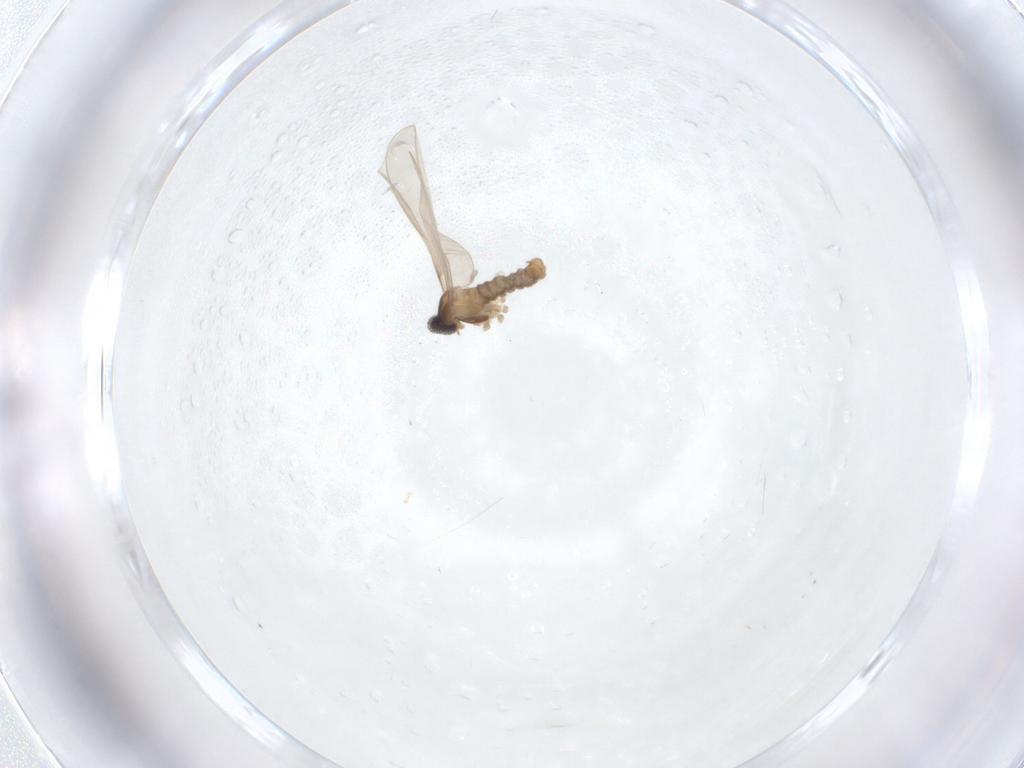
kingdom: Animalia
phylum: Arthropoda
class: Insecta
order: Diptera
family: Cecidomyiidae
